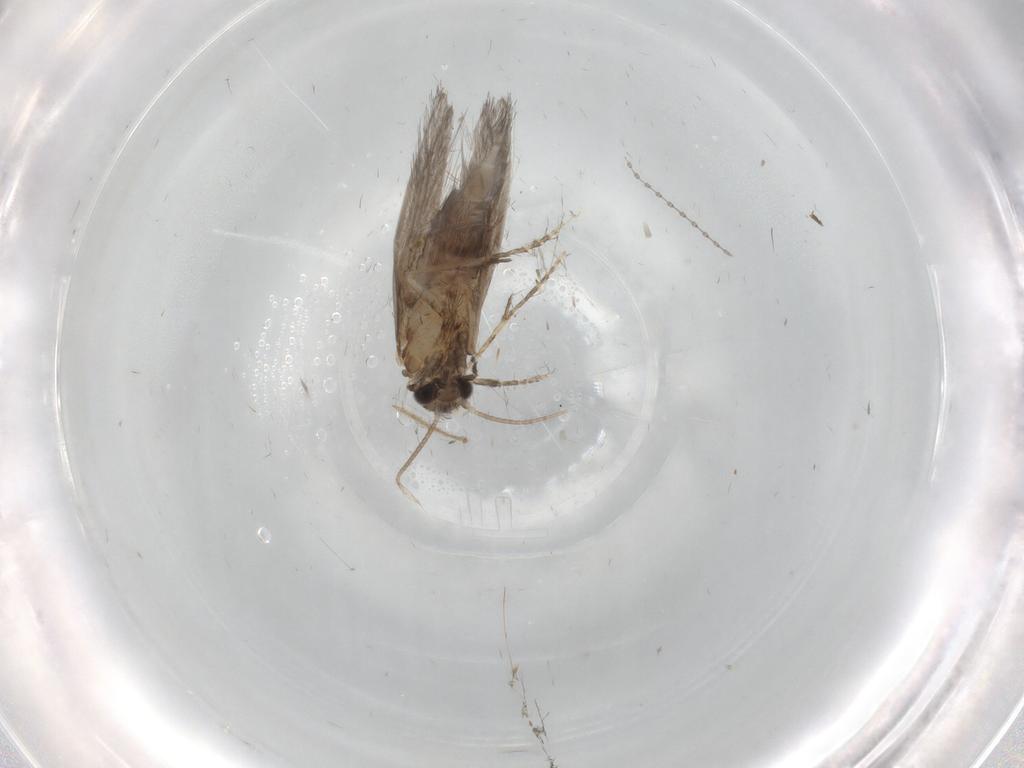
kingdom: Animalia
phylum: Arthropoda
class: Insecta
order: Trichoptera
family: Hydroptilidae
